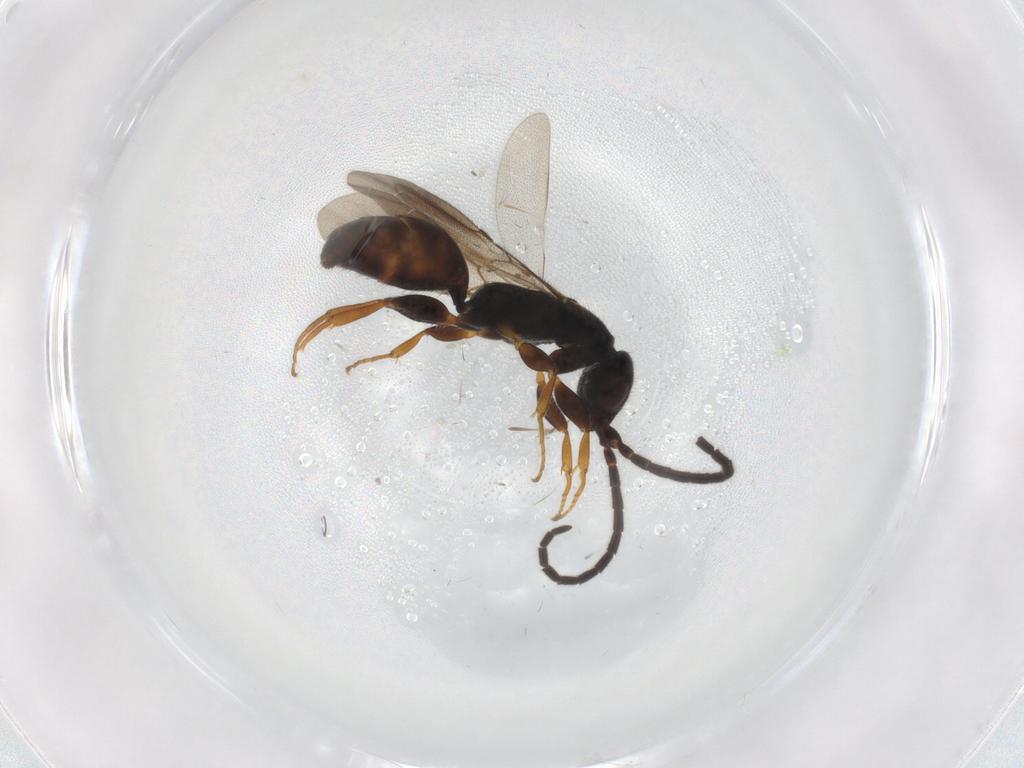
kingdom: Animalia
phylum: Arthropoda
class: Insecta
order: Hymenoptera
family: Bethylidae
